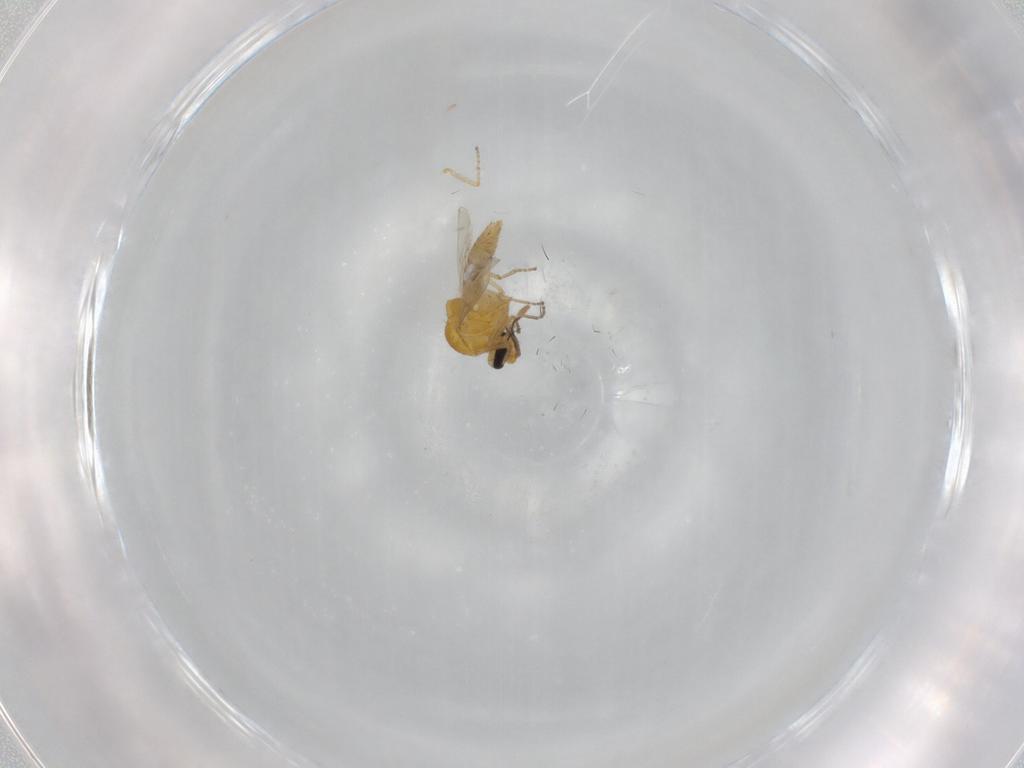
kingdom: Animalia
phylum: Arthropoda
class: Insecta
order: Diptera
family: Ceratopogonidae
